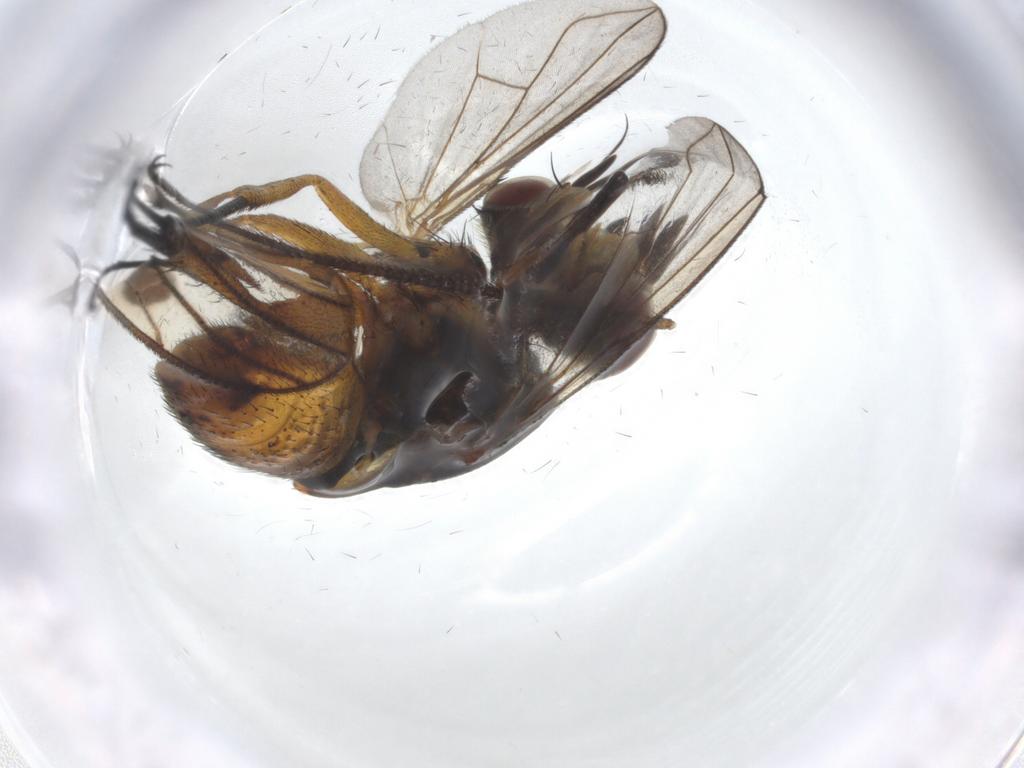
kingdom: Animalia
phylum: Arthropoda
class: Insecta
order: Diptera
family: Tachinidae
